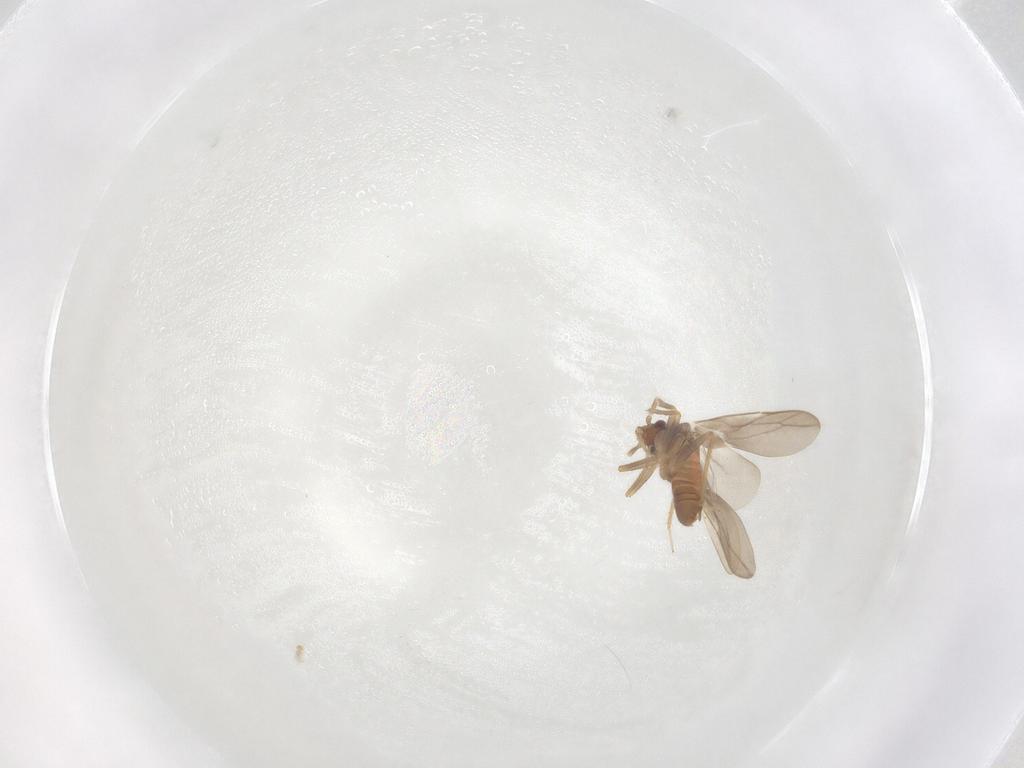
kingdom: Animalia
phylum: Arthropoda
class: Insecta
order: Hemiptera
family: Ceratocombidae
